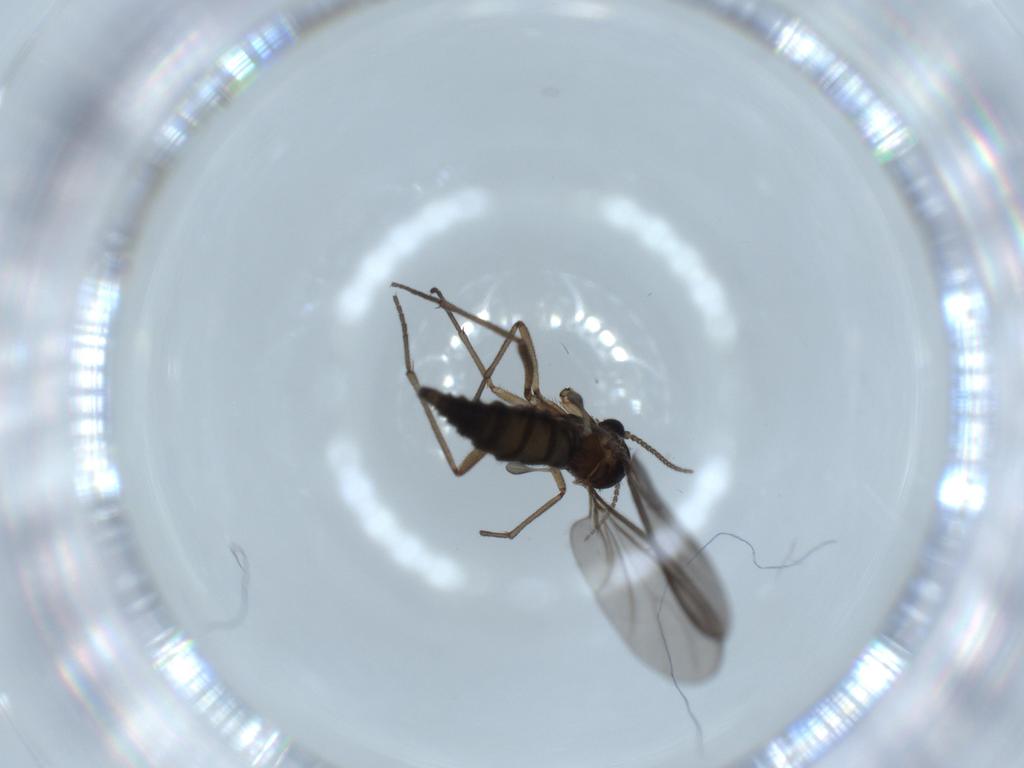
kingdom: Animalia
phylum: Arthropoda
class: Insecta
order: Diptera
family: Sciaridae
